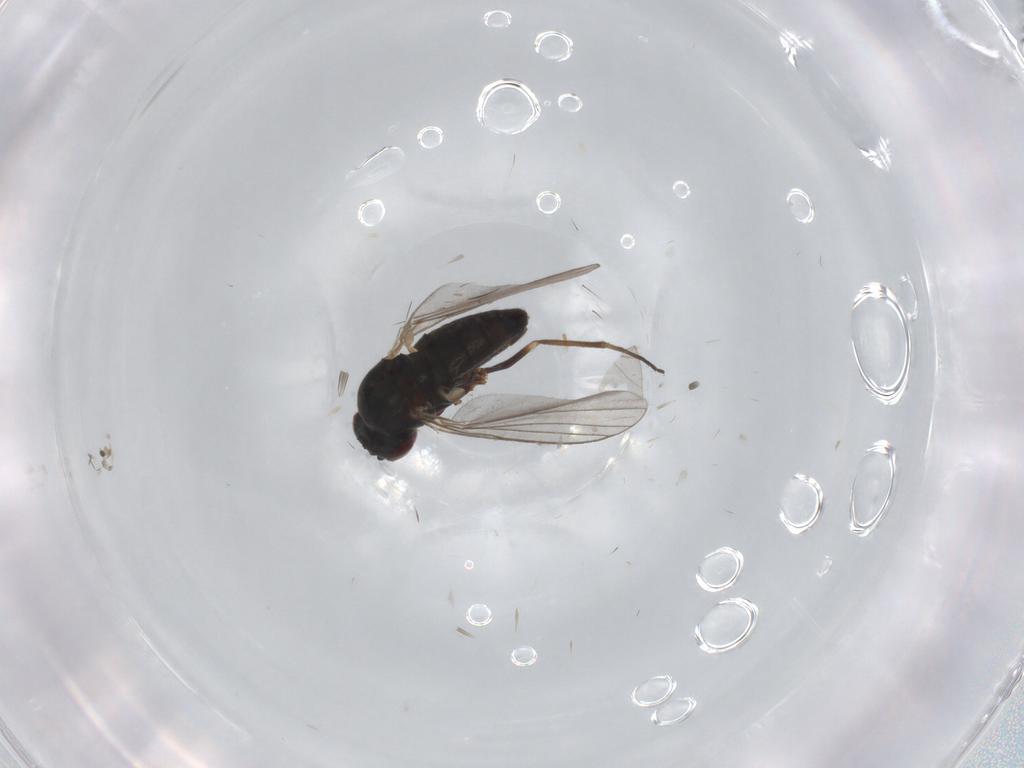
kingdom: Animalia
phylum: Arthropoda
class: Insecta
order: Diptera
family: Dolichopodidae
